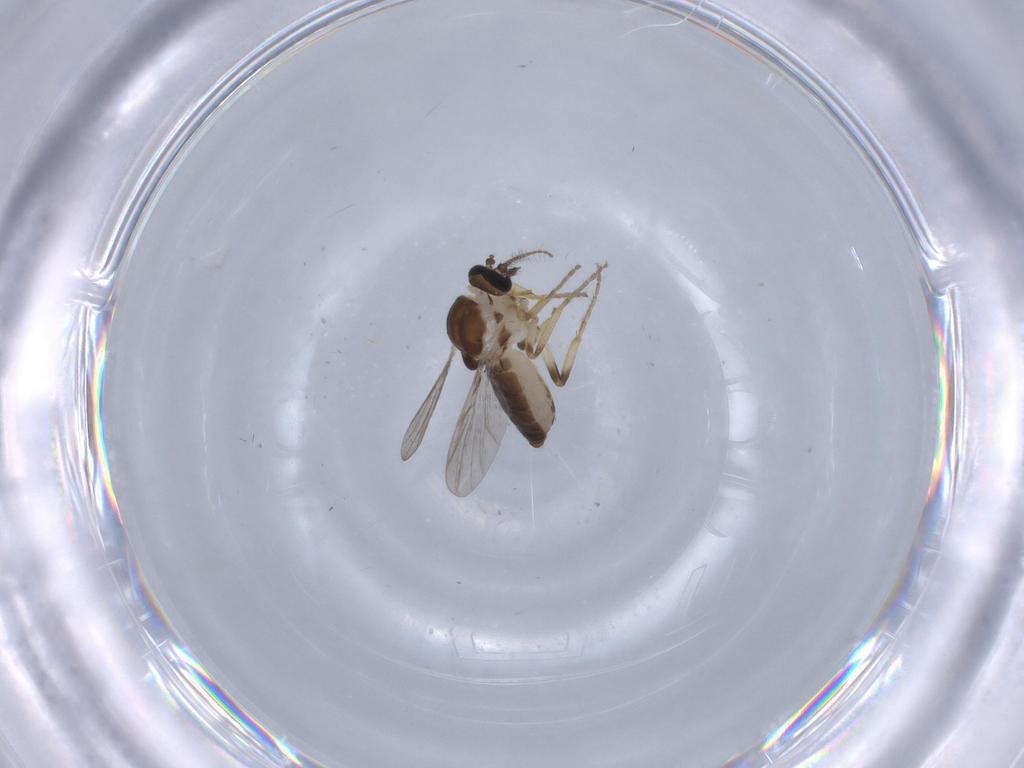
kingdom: Animalia
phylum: Arthropoda
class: Insecta
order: Diptera
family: Ceratopogonidae
